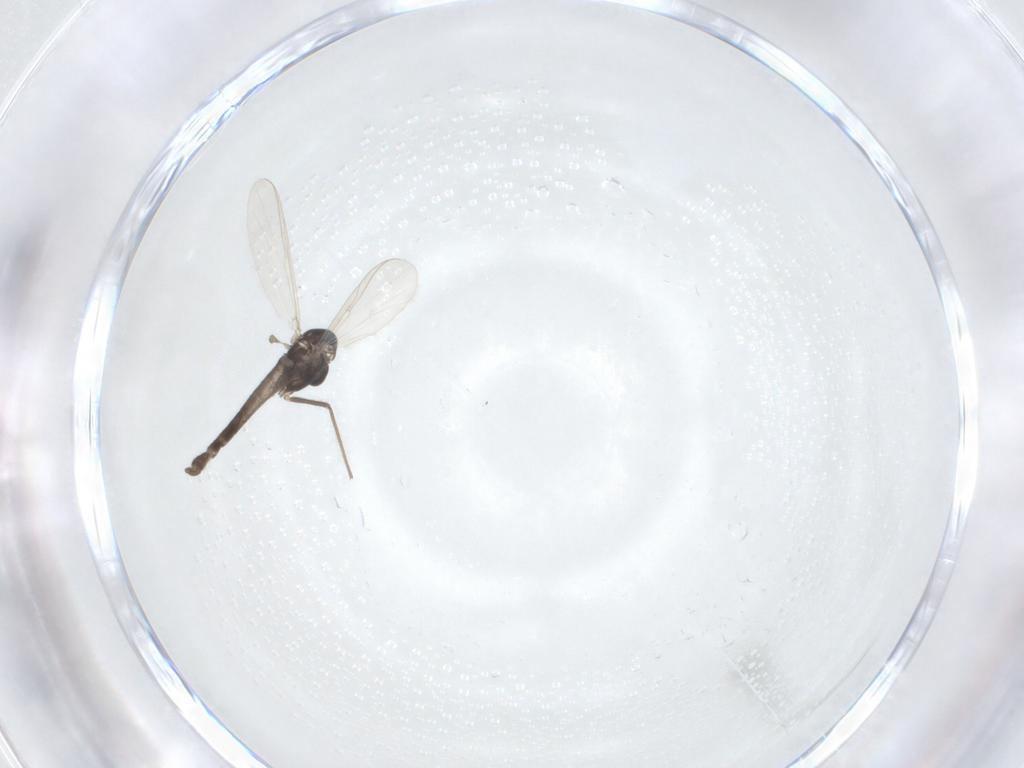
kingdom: Animalia
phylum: Arthropoda
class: Insecta
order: Diptera
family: Chironomidae
